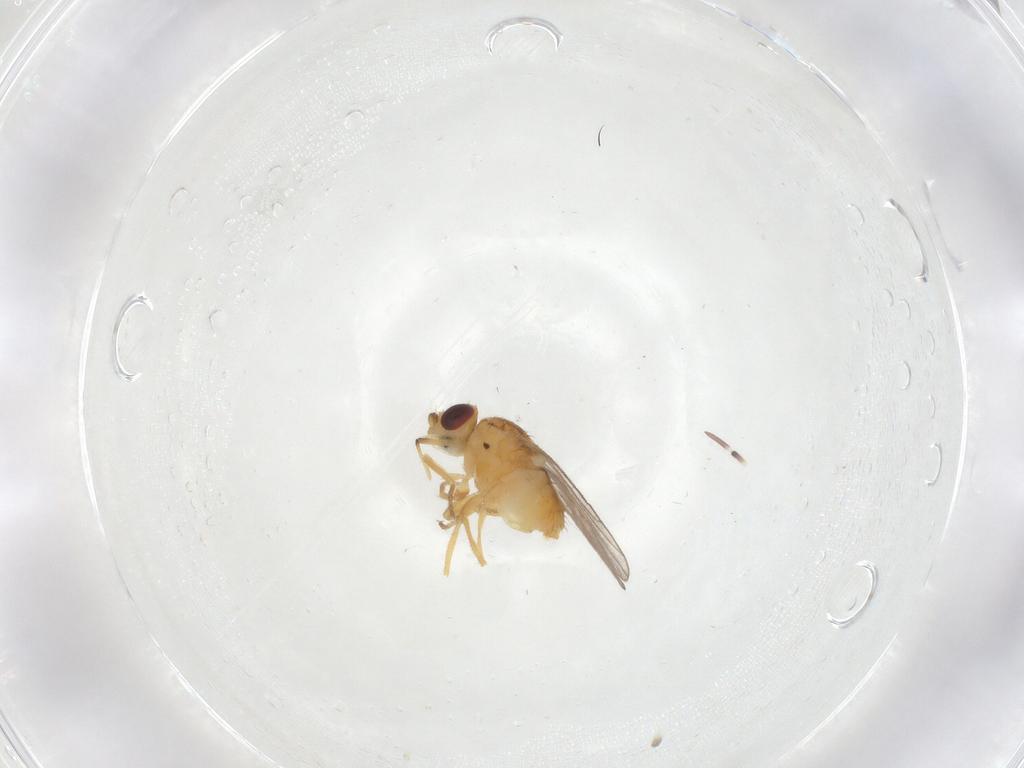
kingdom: Animalia
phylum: Arthropoda
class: Insecta
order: Diptera
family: Chloropidae
